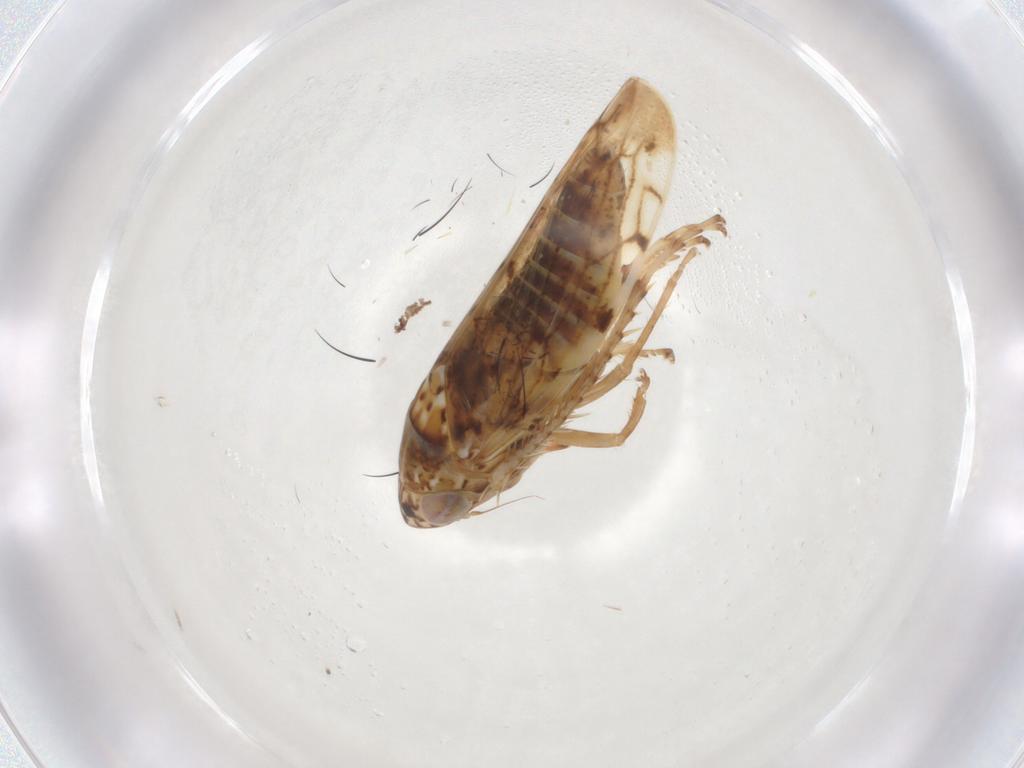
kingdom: Animalia
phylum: Arthropoda
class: Insecta
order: Hemiptera
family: Cicadellidae
